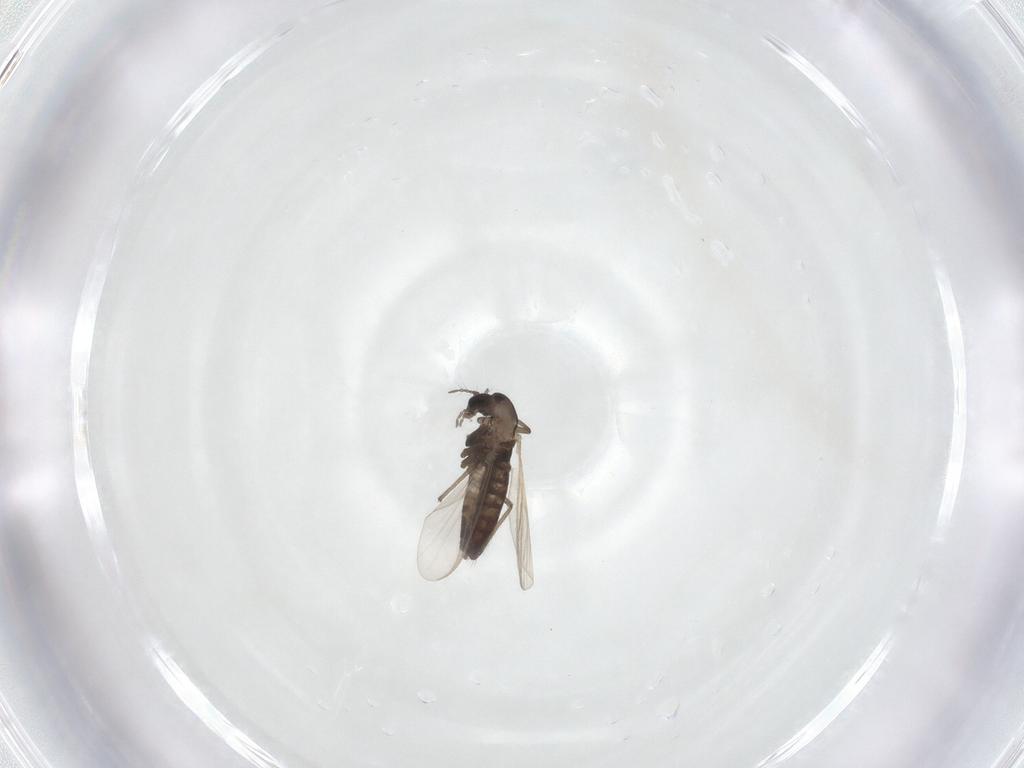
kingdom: Animalia
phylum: Arthropoda
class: Insecta
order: Diptera
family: Chironomidae
